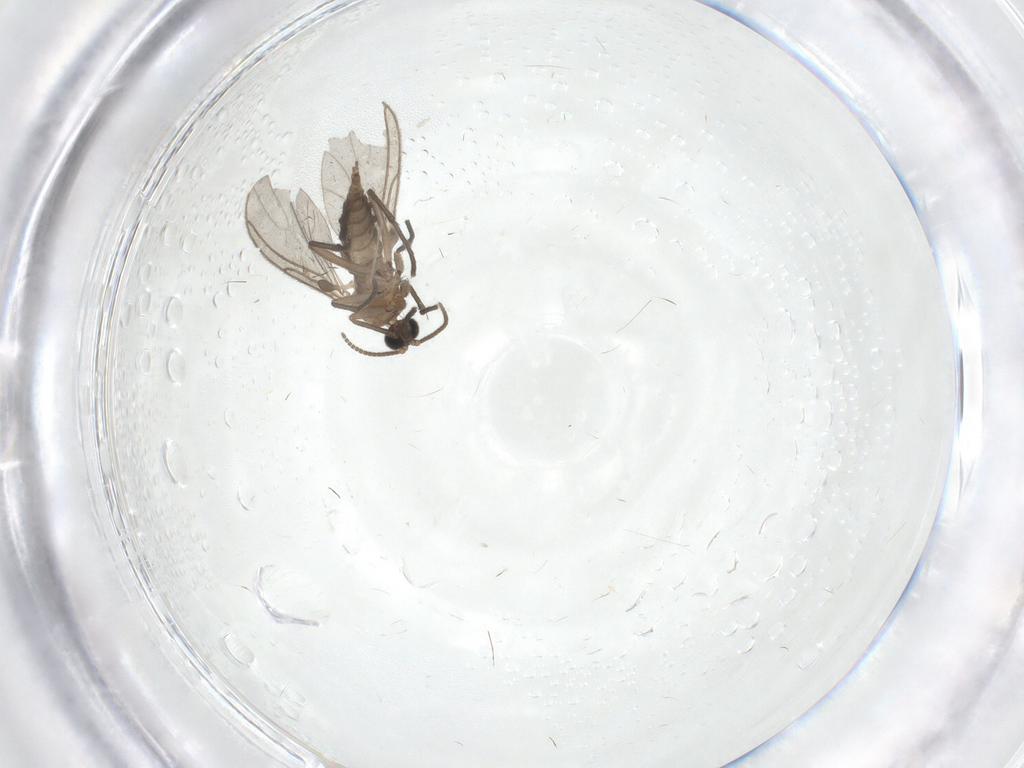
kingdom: Animalia
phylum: Arthropoda
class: Insecta
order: Diptera
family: Sciaridae
